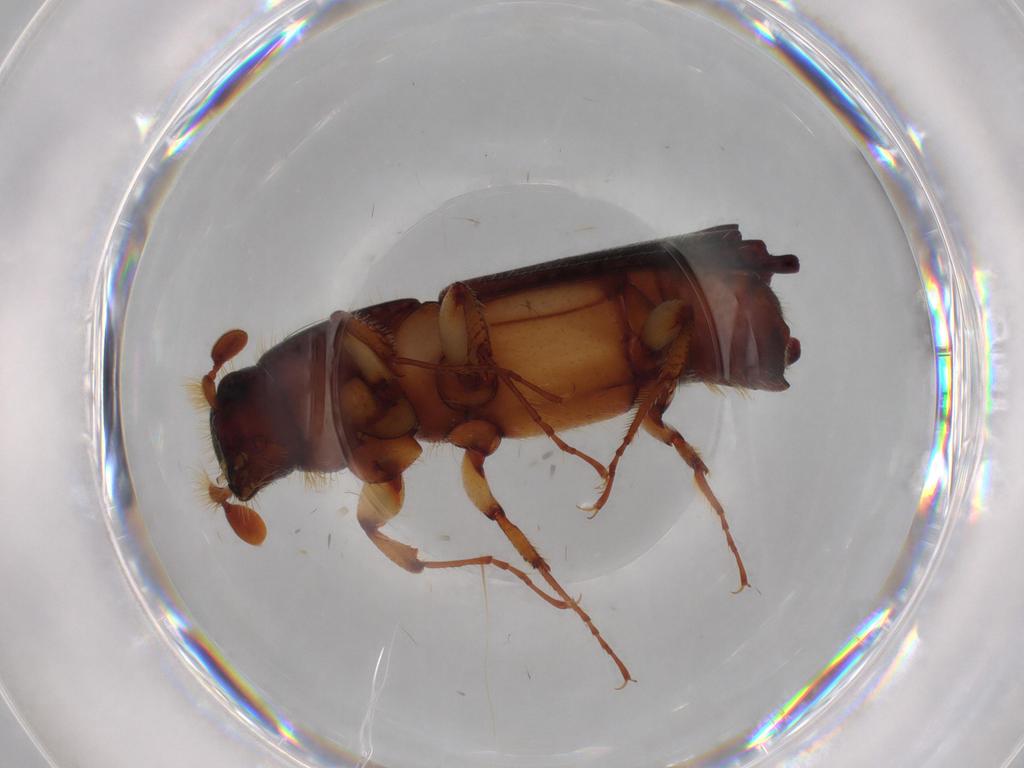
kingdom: Animalia
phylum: Arthropoda
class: Insecta
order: Coleoptera
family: Curculionidae
